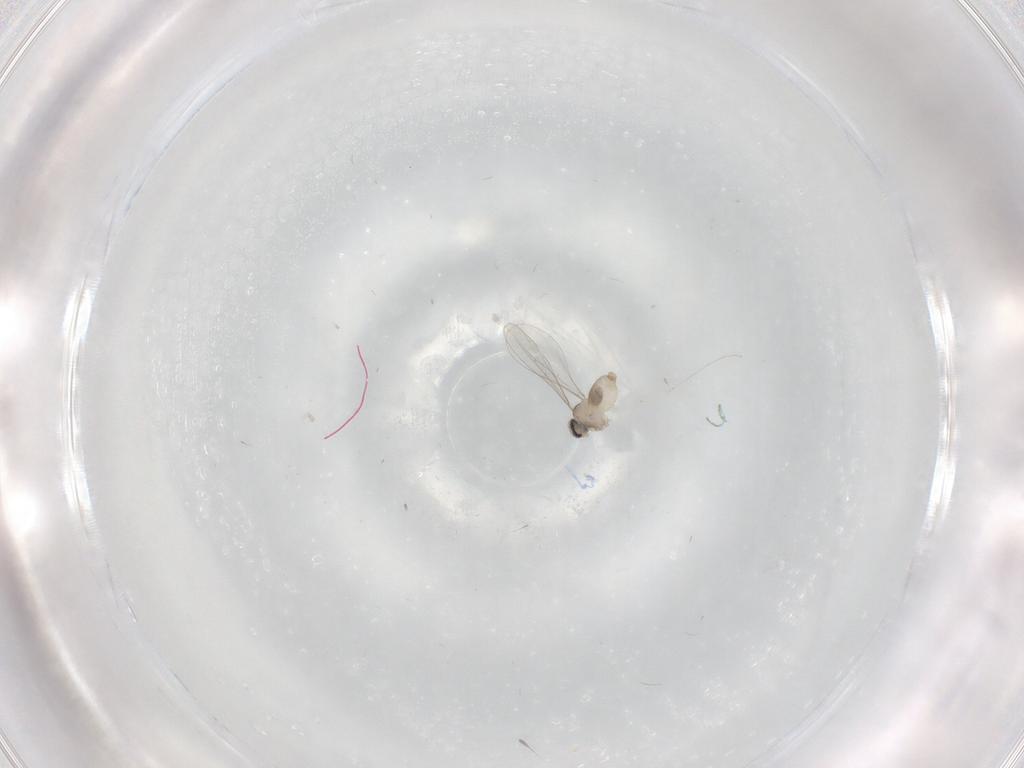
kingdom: Animalia
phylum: Arthropoda
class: Insecta
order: Diptera
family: Cecidomyiidae
